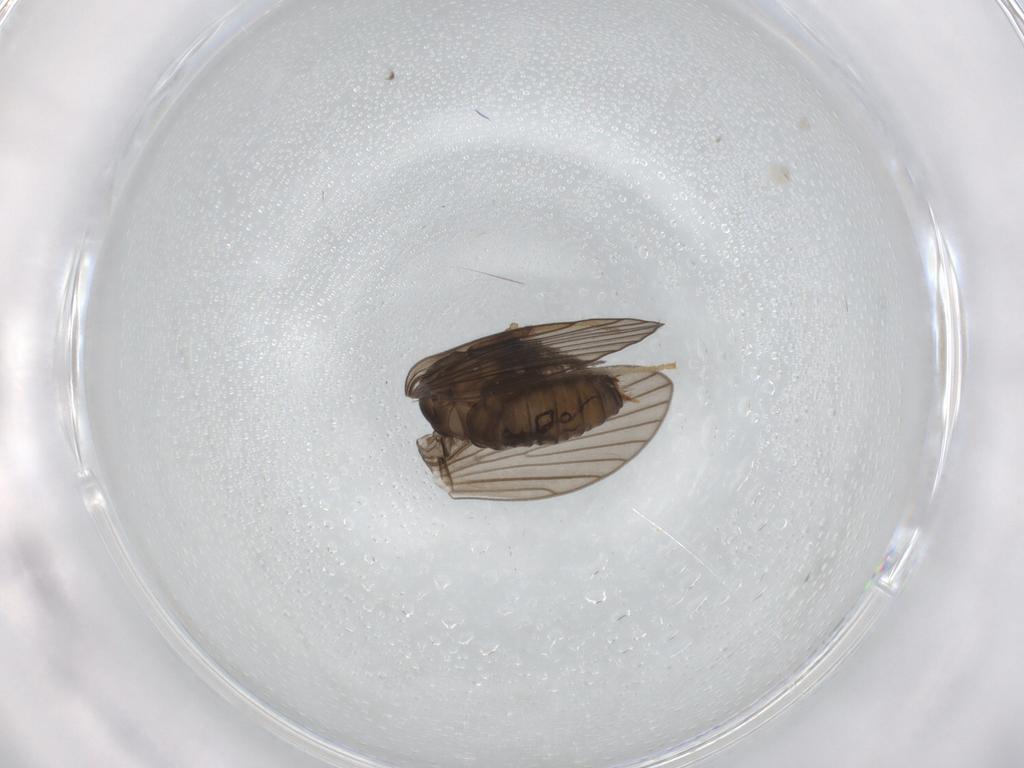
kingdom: Animalia
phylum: Arthropoda
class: Insecta
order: Diptera
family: Psychodidae
